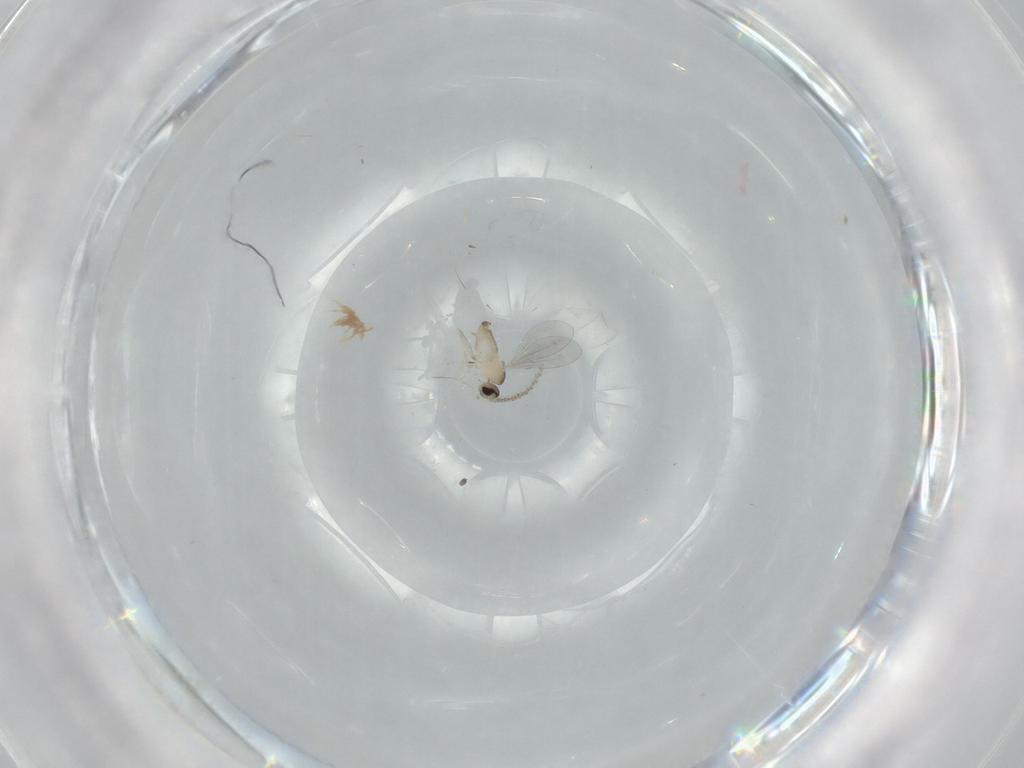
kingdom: Animalia
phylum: Arthropoda
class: Insecta
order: Diptera
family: Cecidomyiidae
